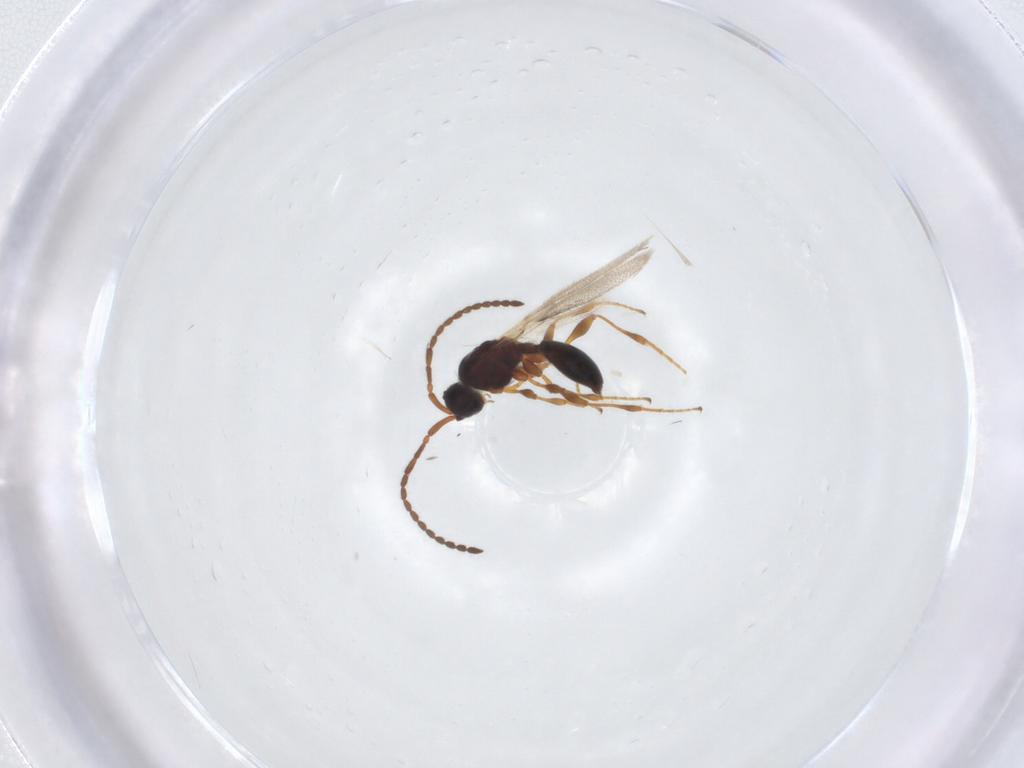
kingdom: Animalia
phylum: Arthropoda
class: Insecta
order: Hymenoptera
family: Diapriidae
